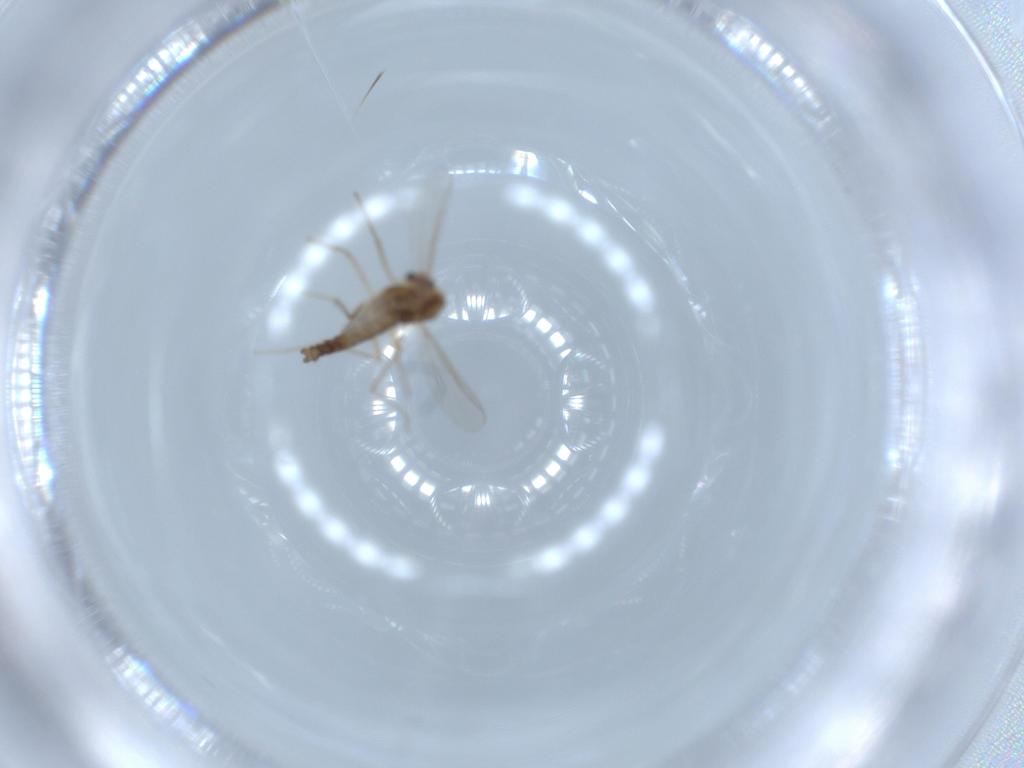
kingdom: Animalia
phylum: Arthropoda
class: Insecta
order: Diptera
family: Chironomidae
